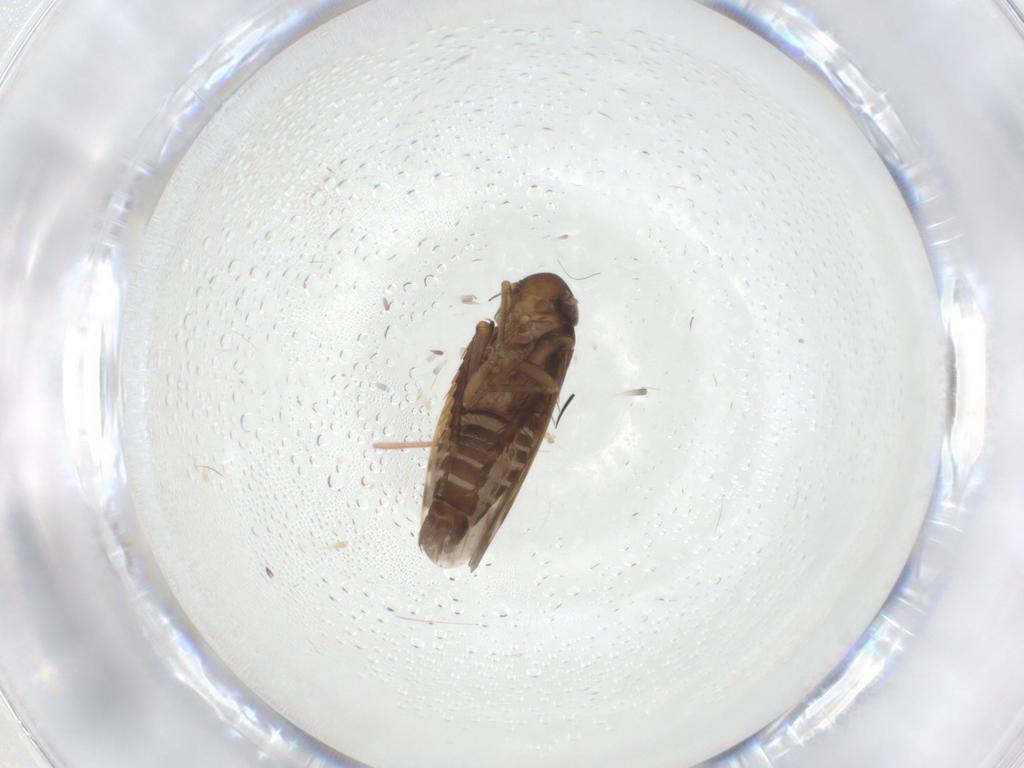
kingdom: Animalia
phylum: Arthropoda
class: Insecta
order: Hemiptera
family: Cicadellidae
